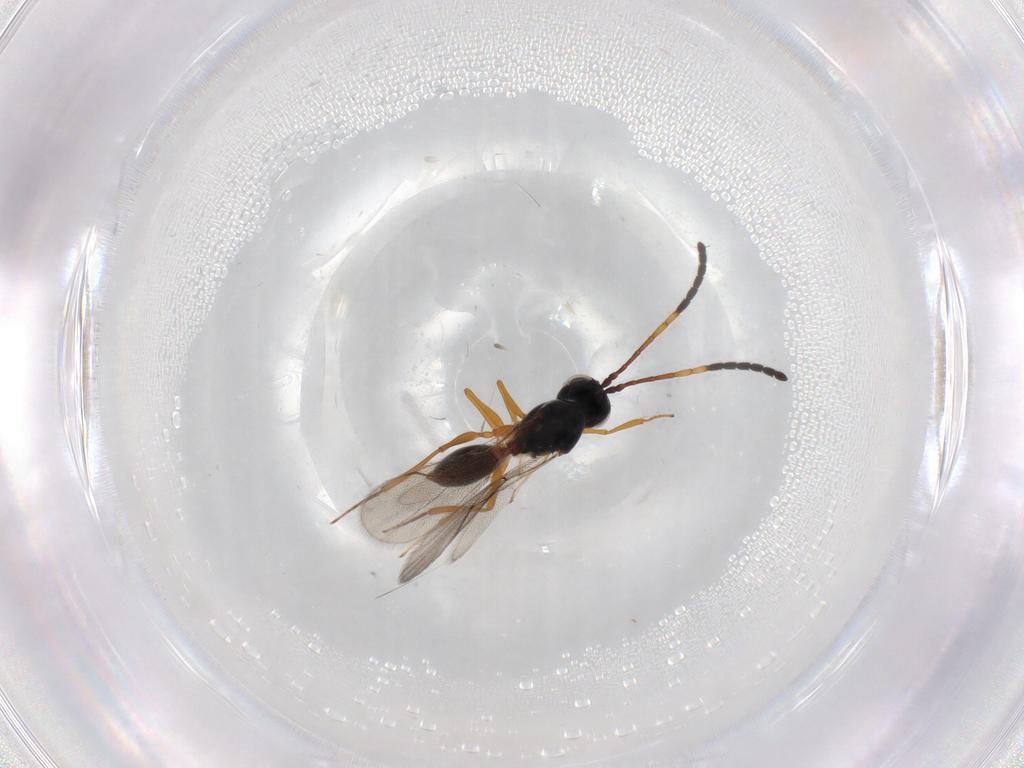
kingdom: Animalia
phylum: Arthropoda
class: Insecta
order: Hymenoptera
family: Figitidae
